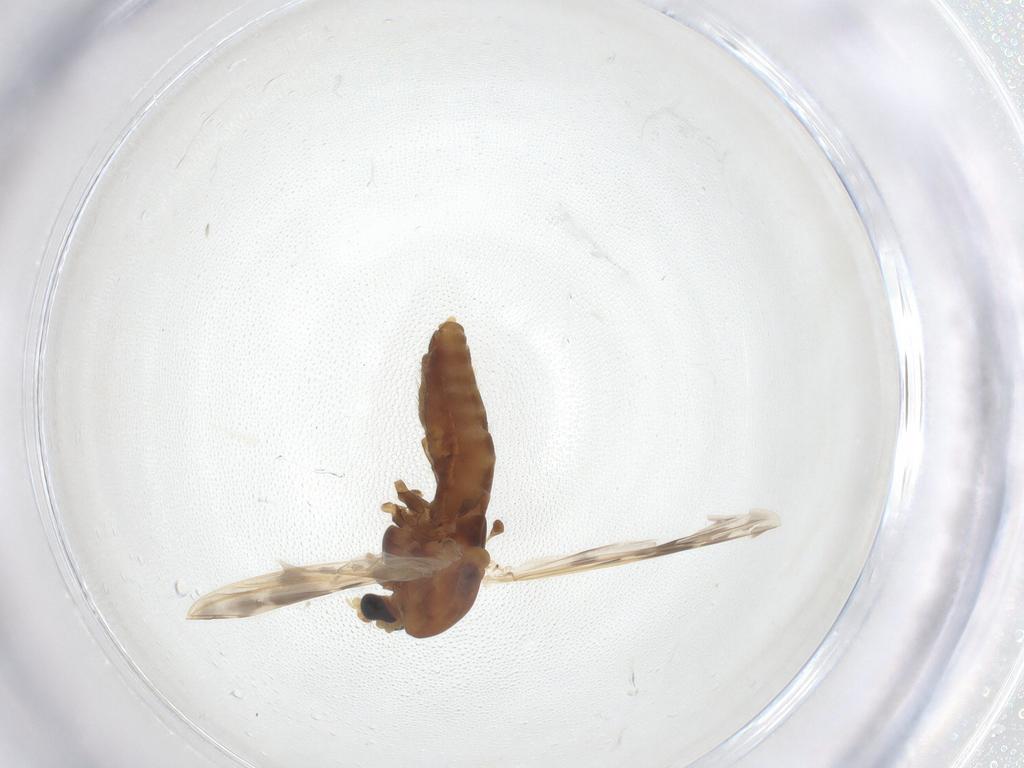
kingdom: Animalia
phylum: Arthropoda
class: Insecta
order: Diptera
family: Chironomidae
